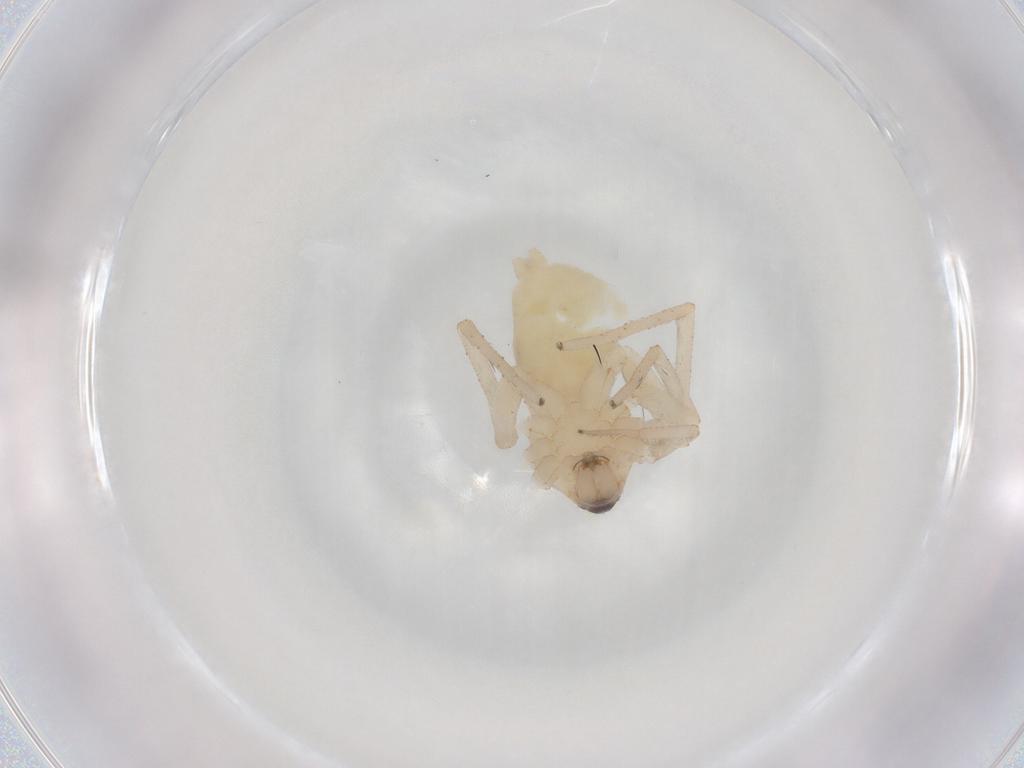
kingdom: Animalia
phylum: Arthropoda
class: Arachnida
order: Araneae
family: Gnaphosidae
